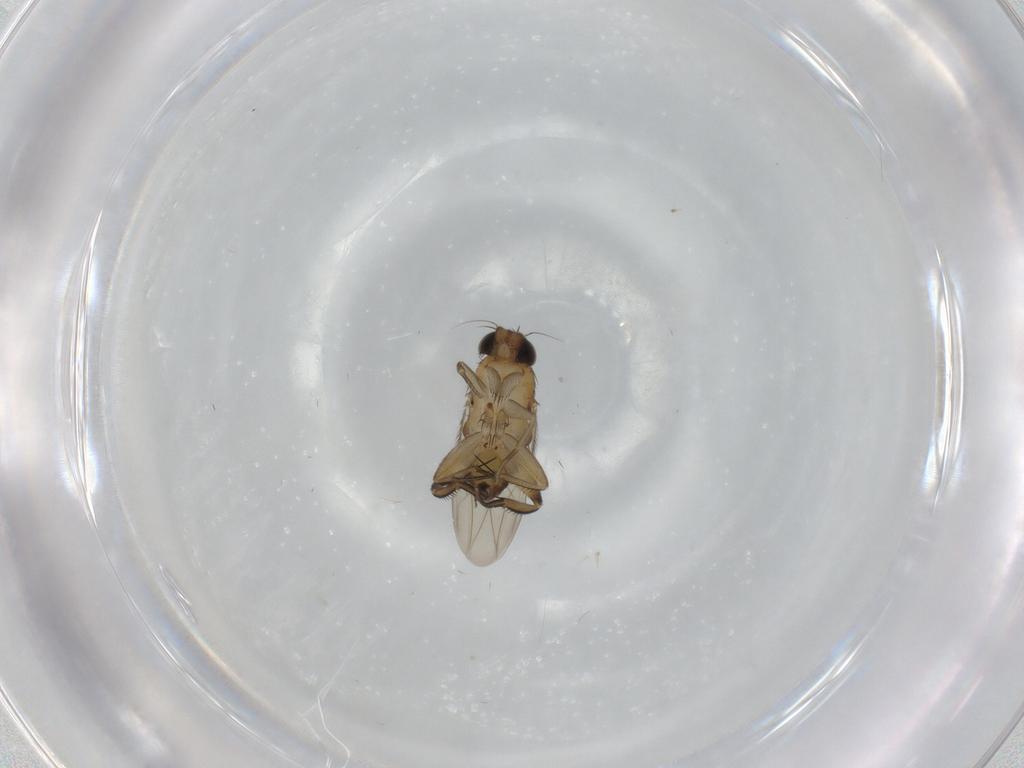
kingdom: Animalia
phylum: Arthropoda
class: Insecta
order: Diptera
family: Phoridae
